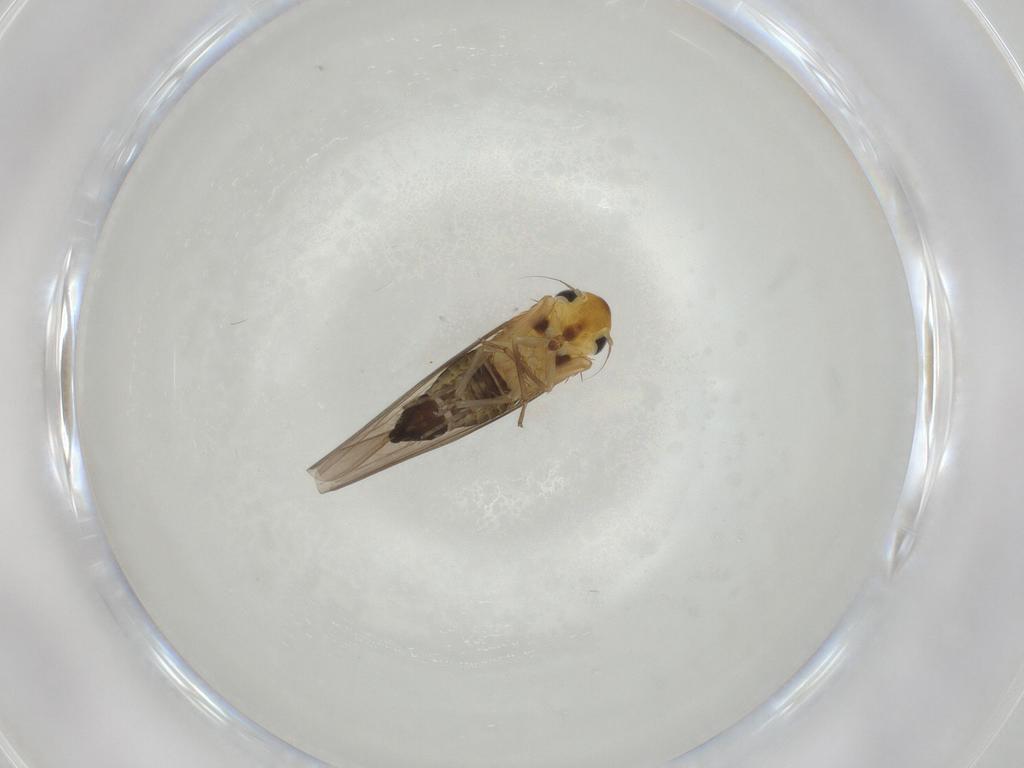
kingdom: Animalia
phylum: Arthropoda
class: Insecta
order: Hemiptera
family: Cicadellidae
